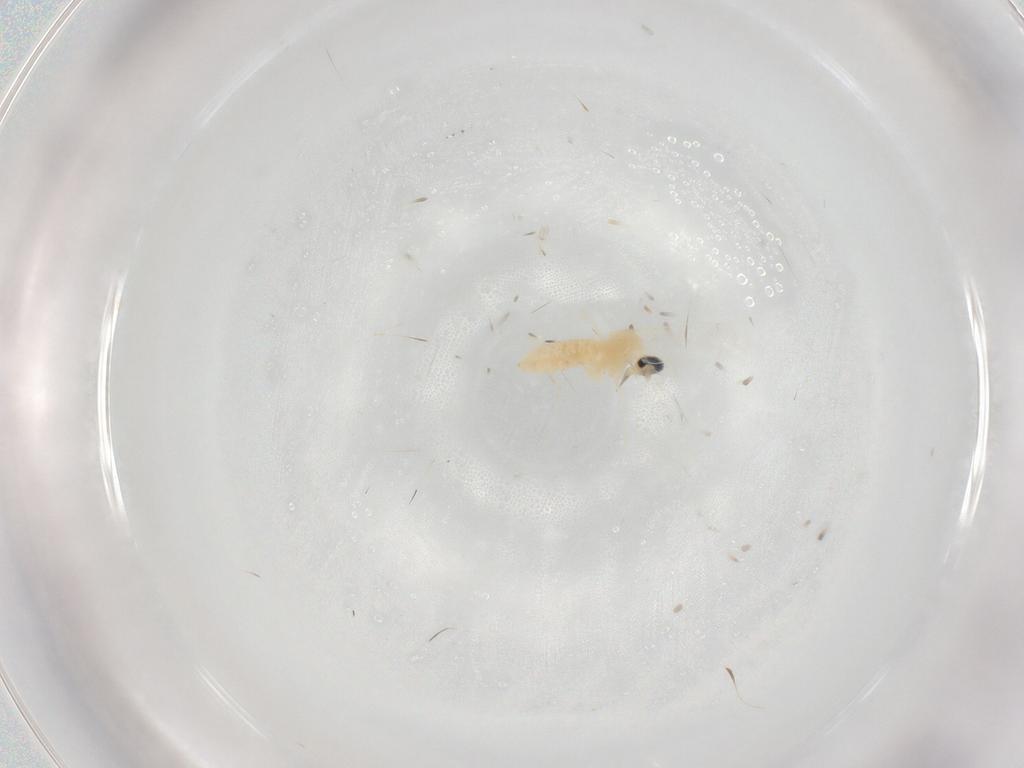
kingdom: Animalia
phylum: Arthropoda
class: Insecta
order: Diptera
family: Muscidae
